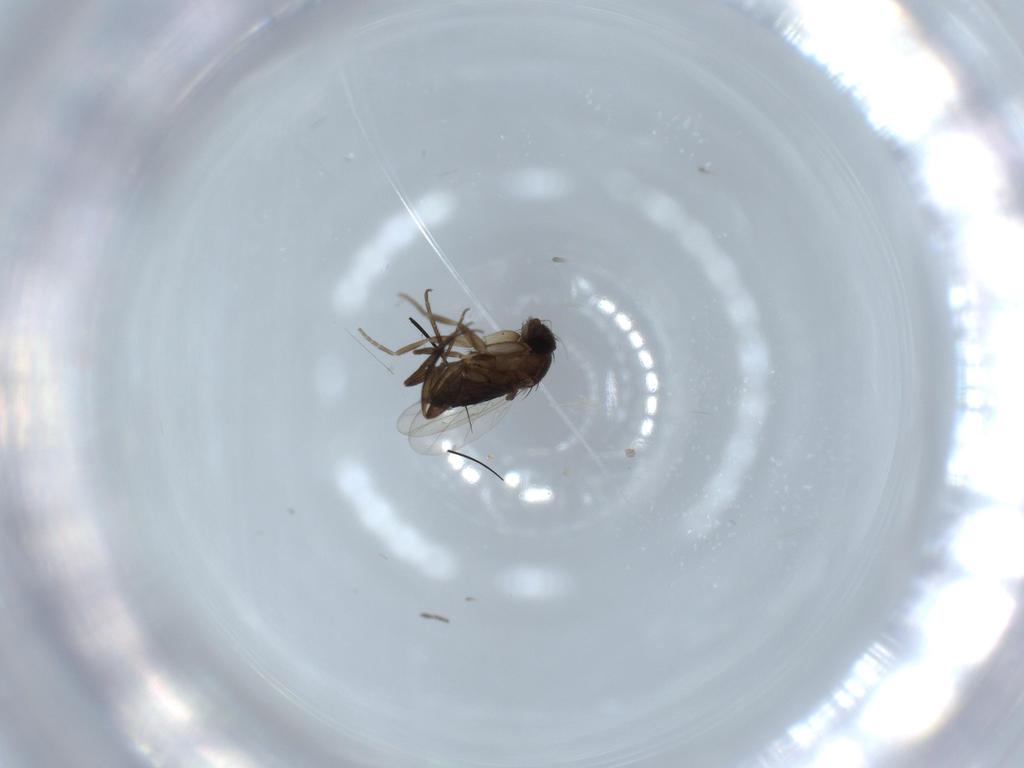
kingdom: Animalia
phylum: Arthropoda
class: Insecta
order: Diptera
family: Phoridae
